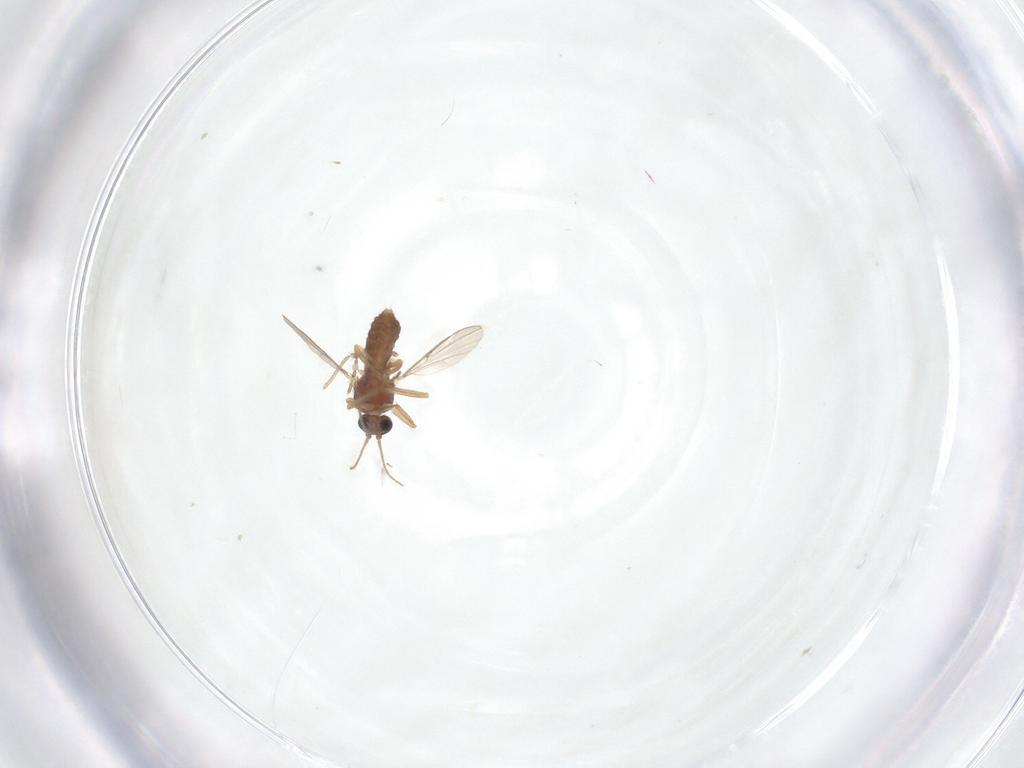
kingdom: Animalia
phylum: Arthropoda
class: Insecta
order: Diptera
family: Ceratopogonidae
